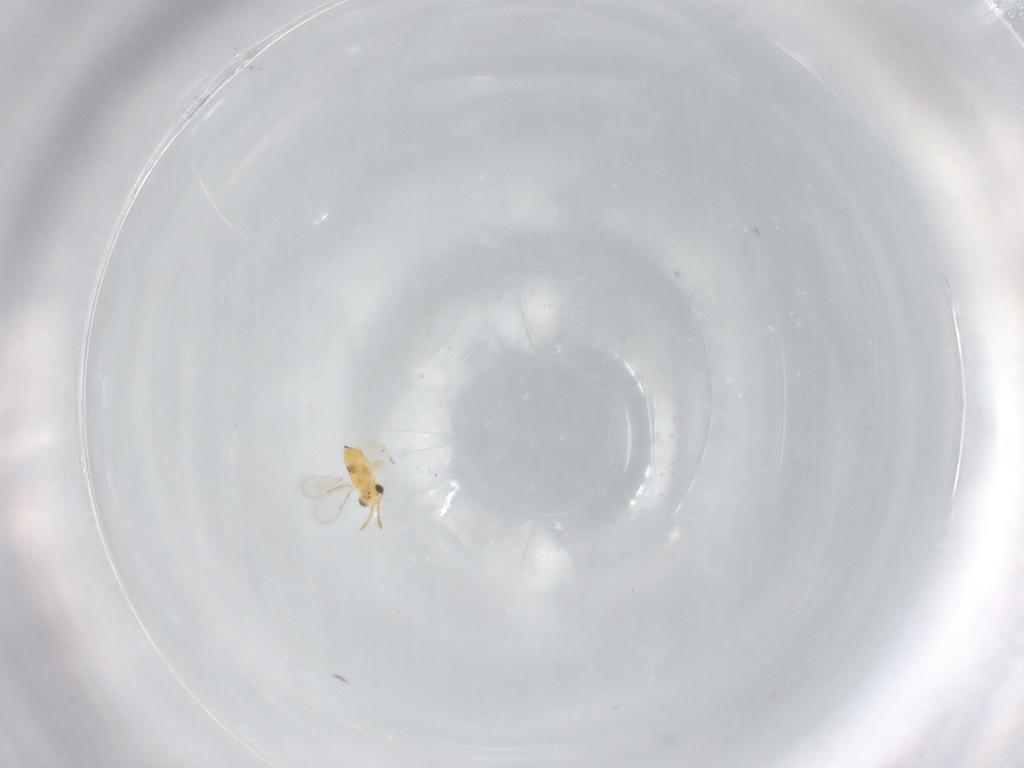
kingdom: Animalia
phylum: Arthropoda
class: Insecta
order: Hymenoptera
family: Aphelinidae
